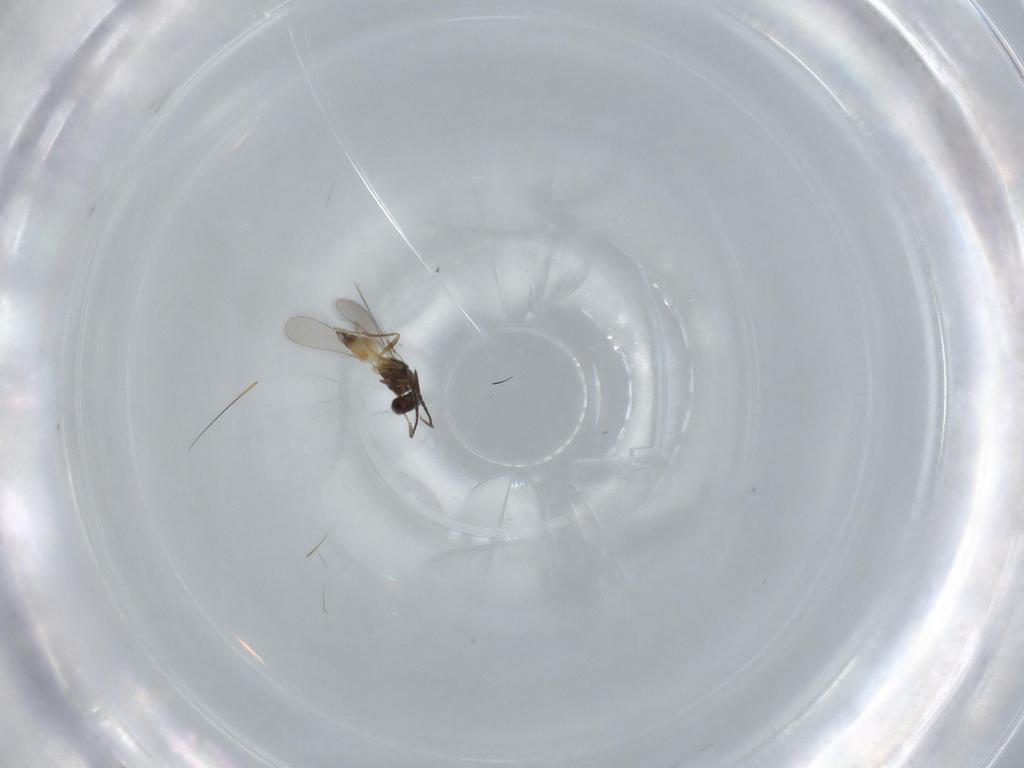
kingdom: Animalia
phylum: Arthropoda
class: Insecta
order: Hymenoptera
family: Mymaridae
